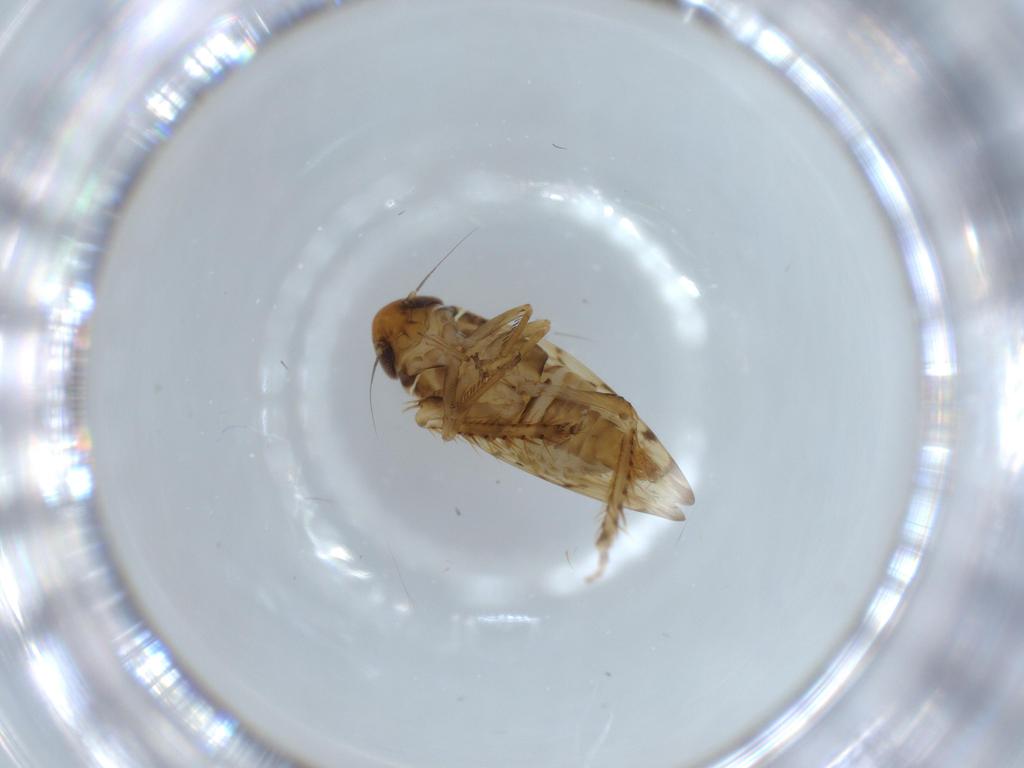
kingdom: Animalia
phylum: Arthropoda
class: Insecta
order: Hemiptera
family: Cicadellidae
